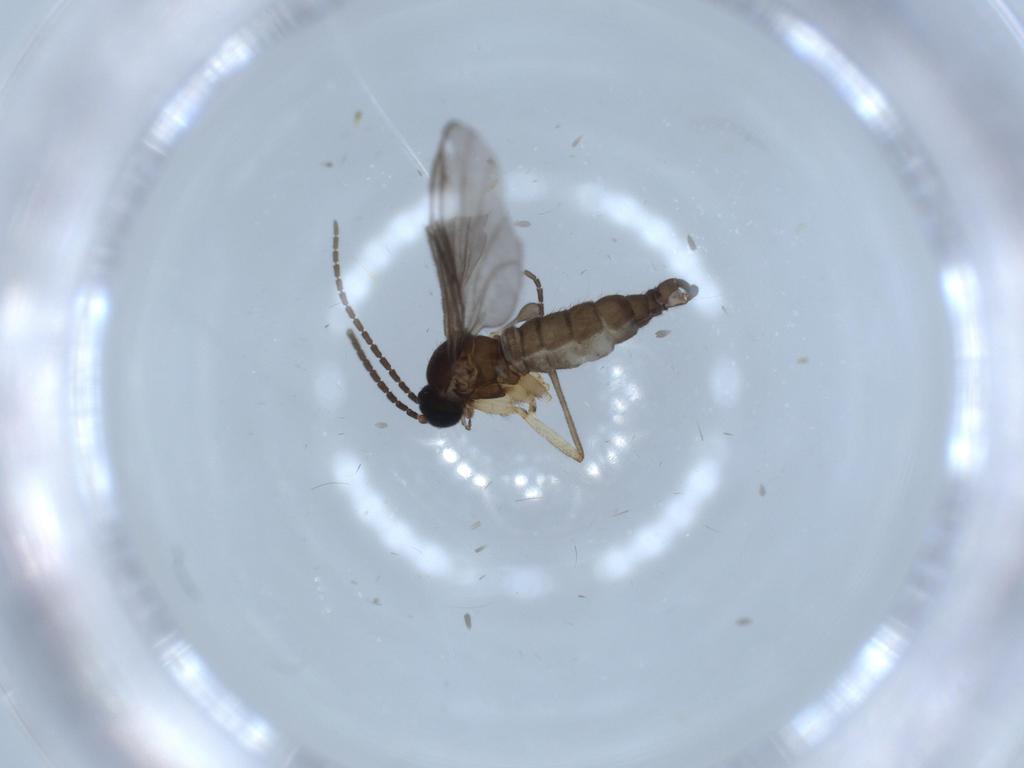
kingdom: Animalia
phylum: Arthropoda
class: Insecta
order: Diptera
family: Sciaridae
